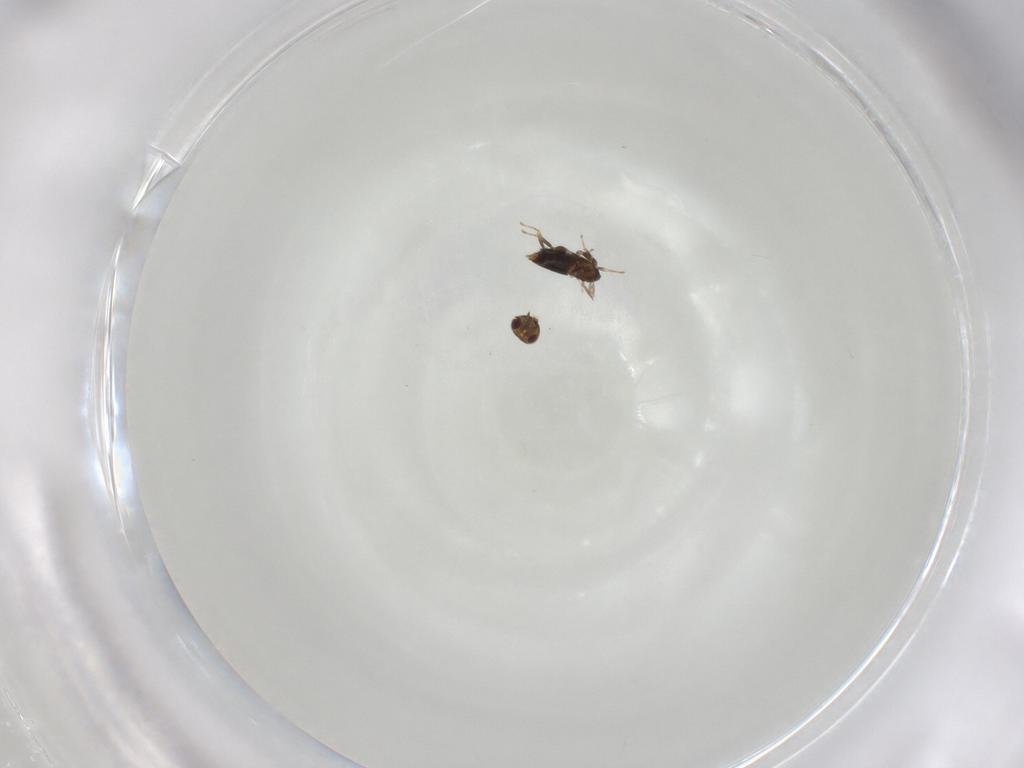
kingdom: Animalia
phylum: Arthropoda
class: Insecta
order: Hymenoptera
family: Aphelinidae
